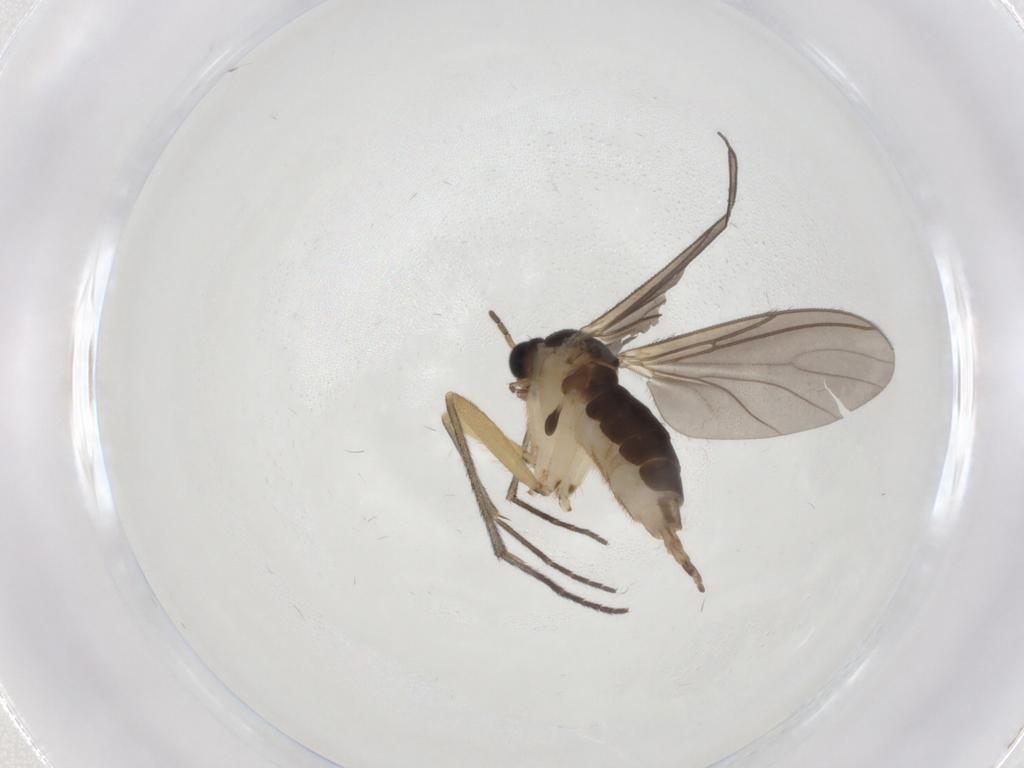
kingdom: Animalia
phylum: Arthropoda
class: Insecta
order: Diptera
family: Sciaridae
